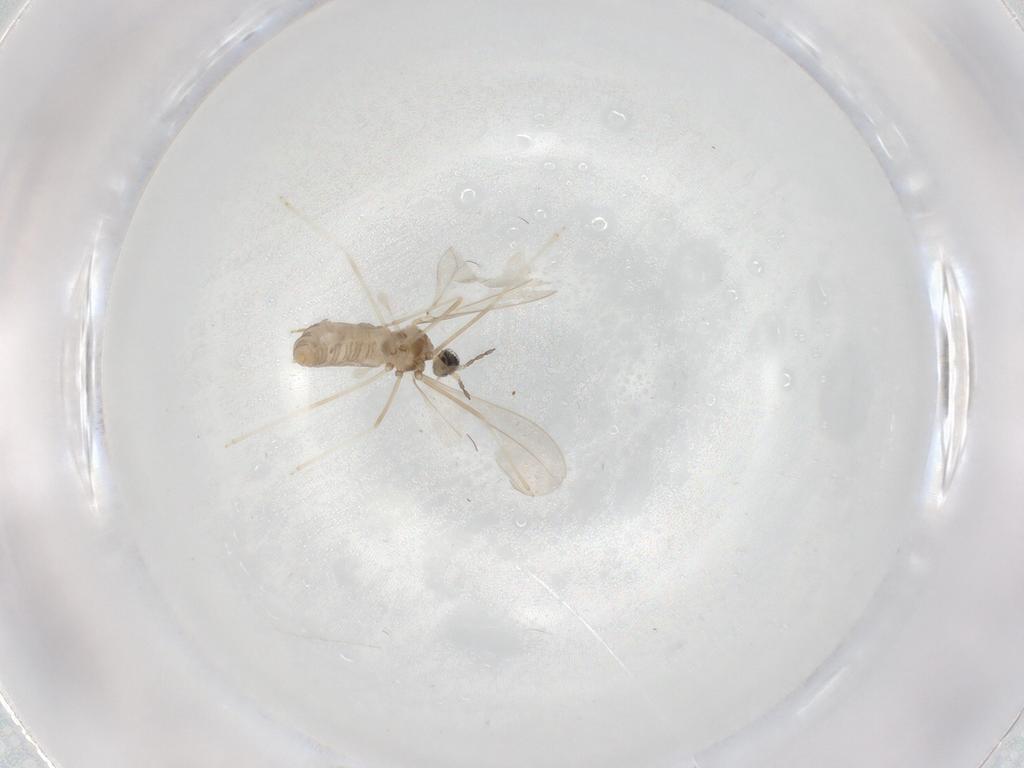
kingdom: Animalia
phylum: Arthropoda
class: Insecta
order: Diptera
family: Cecidomyiidae
